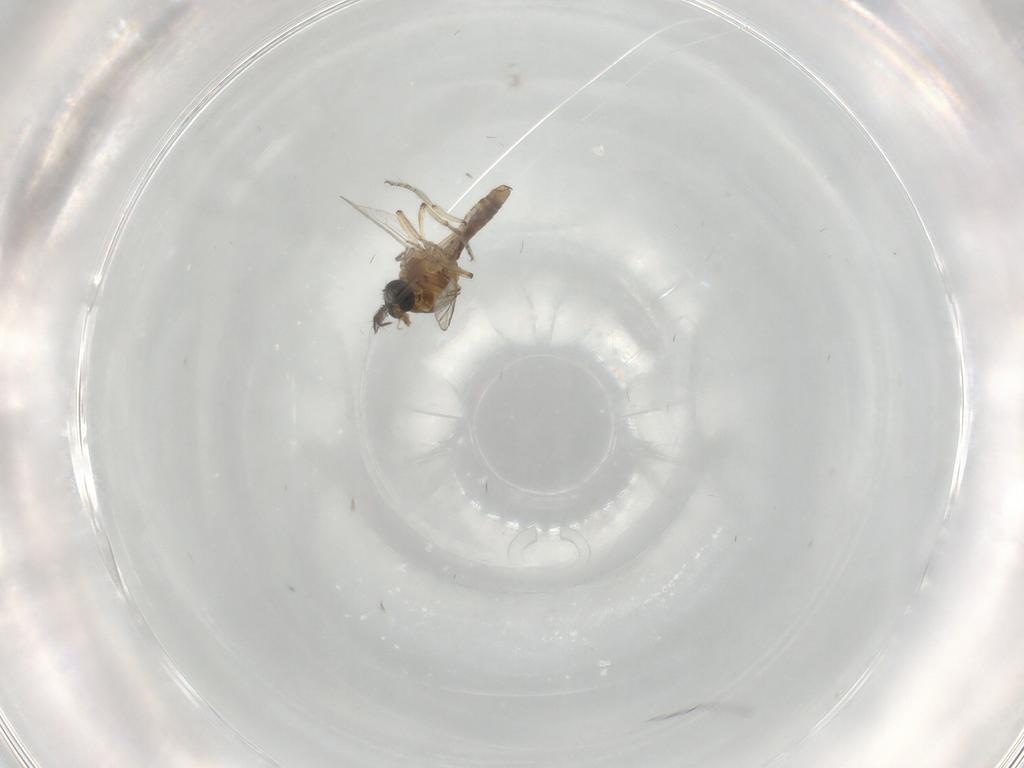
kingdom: Animalia
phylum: Arthropoda
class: Insecta
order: Diptera
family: Ceratopogonidae
